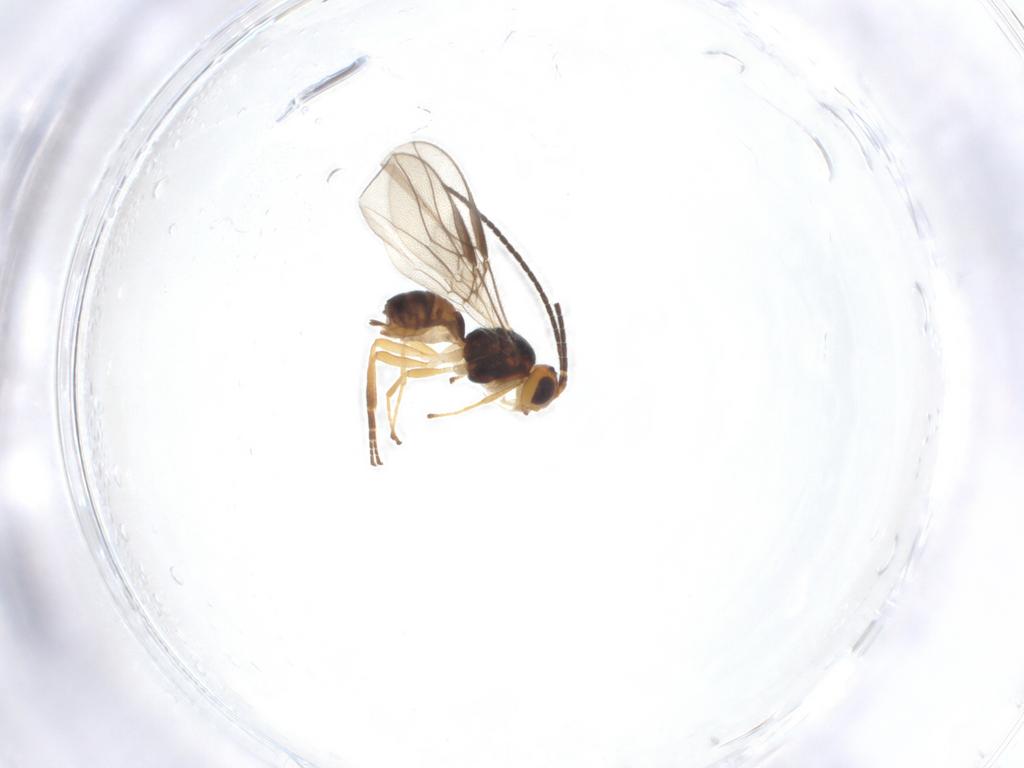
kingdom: Animalia
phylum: Arthropoda
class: Insecta
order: Hymenoptera
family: Braconidae
